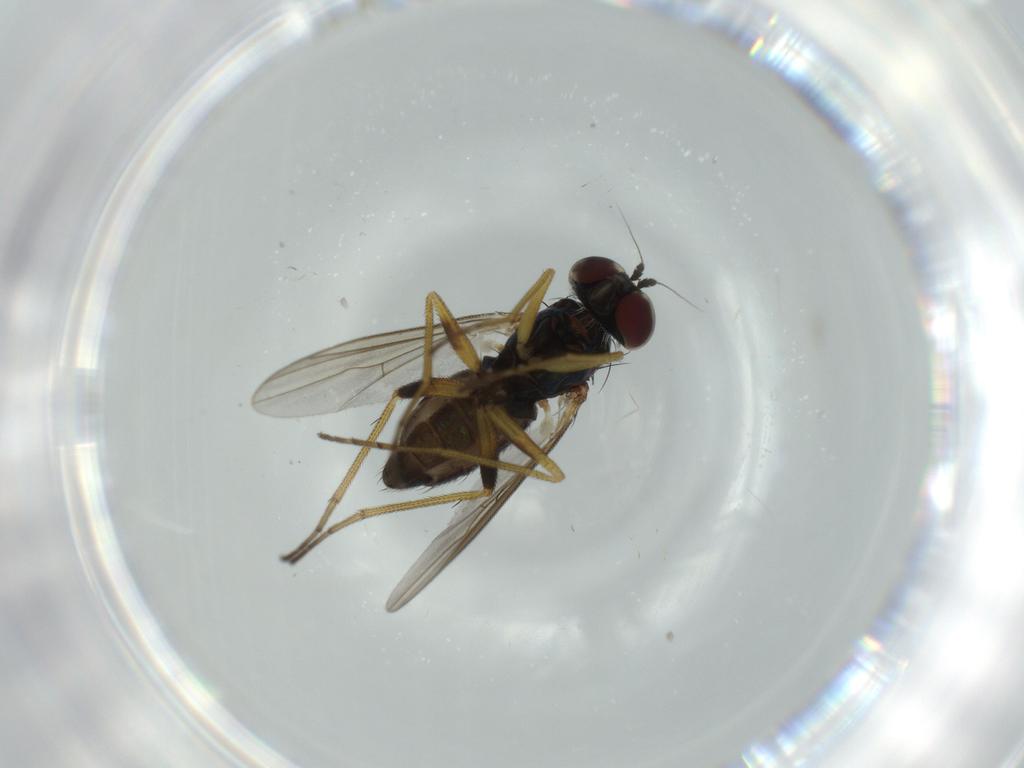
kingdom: Animalia
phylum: Arthropoda
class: Insecta
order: Diptera
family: Dolichopodidae
